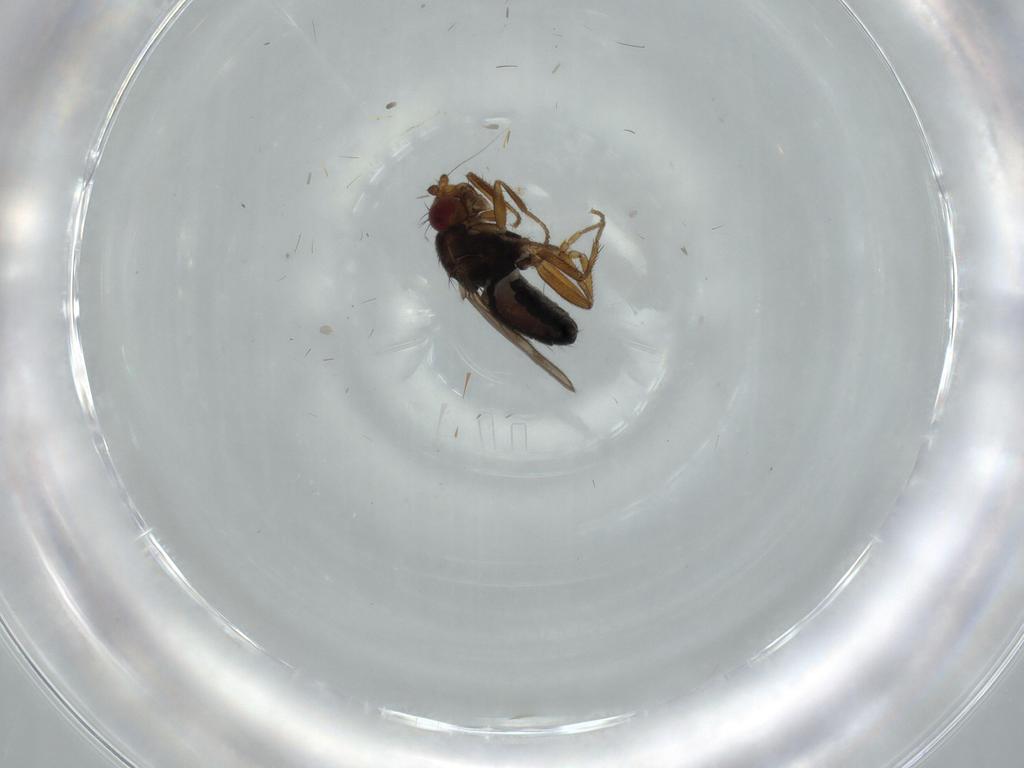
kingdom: Animalia
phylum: Arthropoda
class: Insecta
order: Diptera
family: Sphaeroceridae
